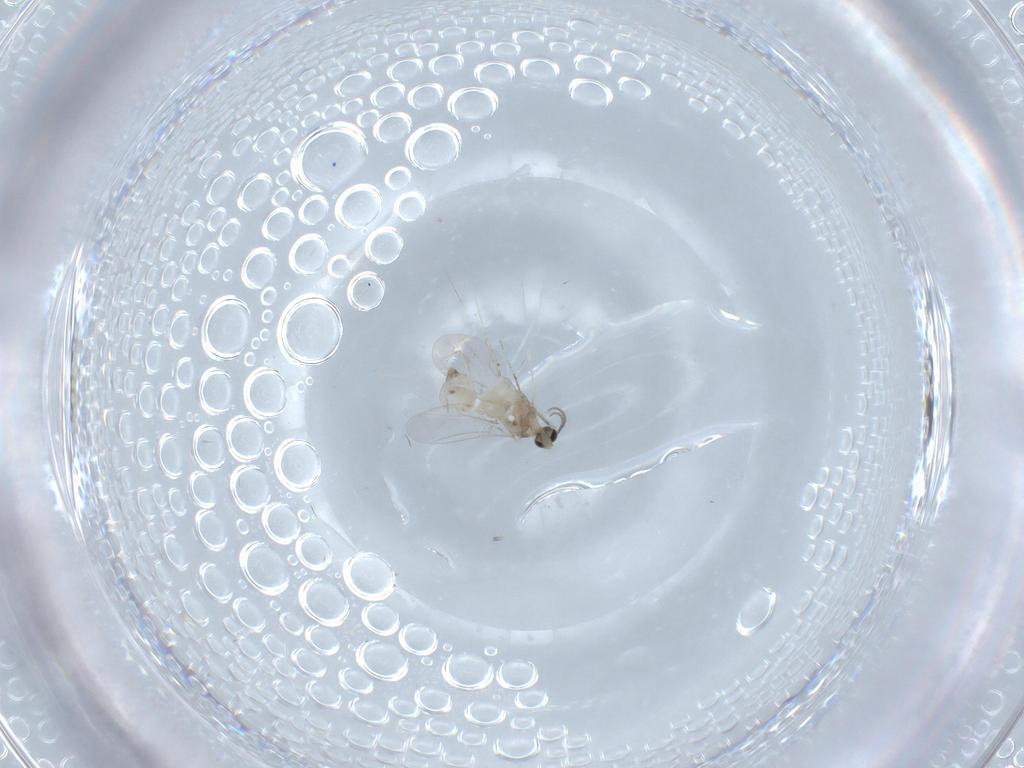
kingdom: Animalia
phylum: Arthropoda
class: Insecta
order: Diptera
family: Cecidomyiidae
